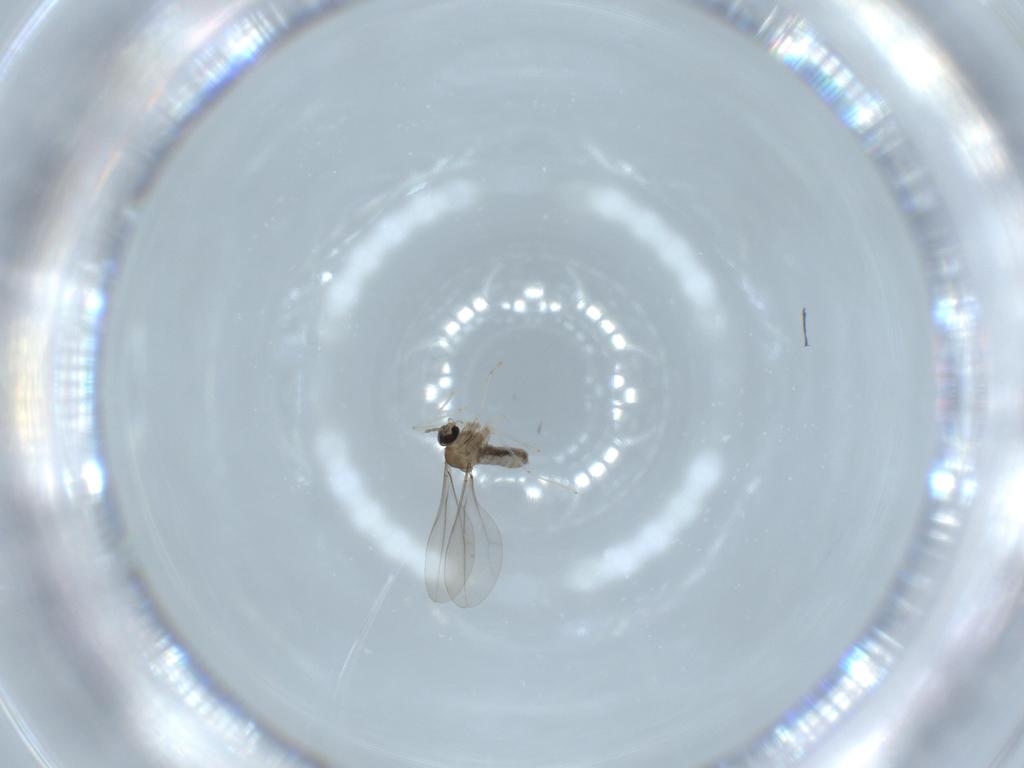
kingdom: Animalia
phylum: Arthropoda
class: Insecta
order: Diptera
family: Cecidomyiidae
